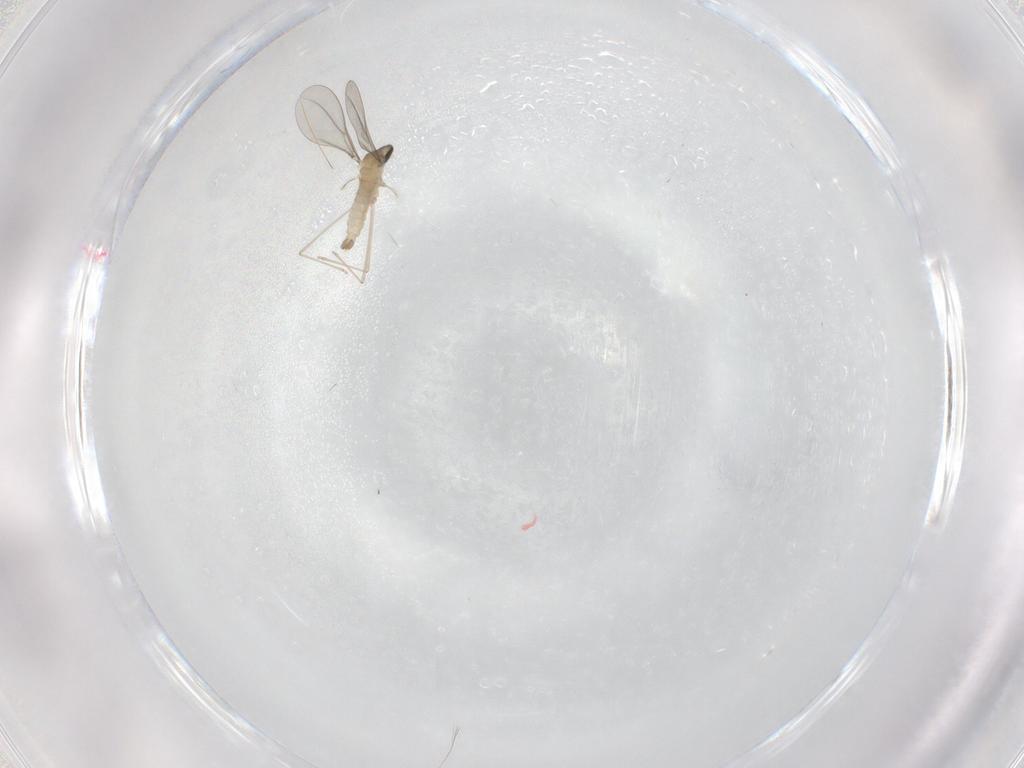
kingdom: Animalia
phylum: Arthropoda
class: Insecta
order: Diptera
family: Cecidomyiidae
